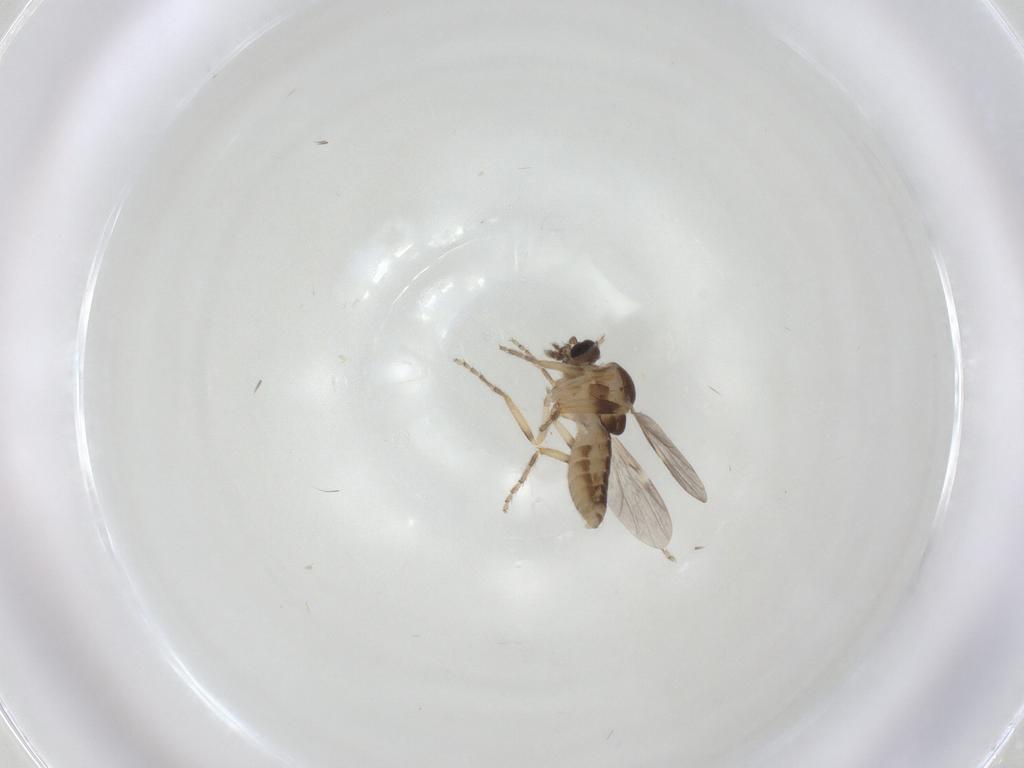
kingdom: Animalia
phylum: Arthropoda
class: Insecta
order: Diptera
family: Ceratopogonidae
